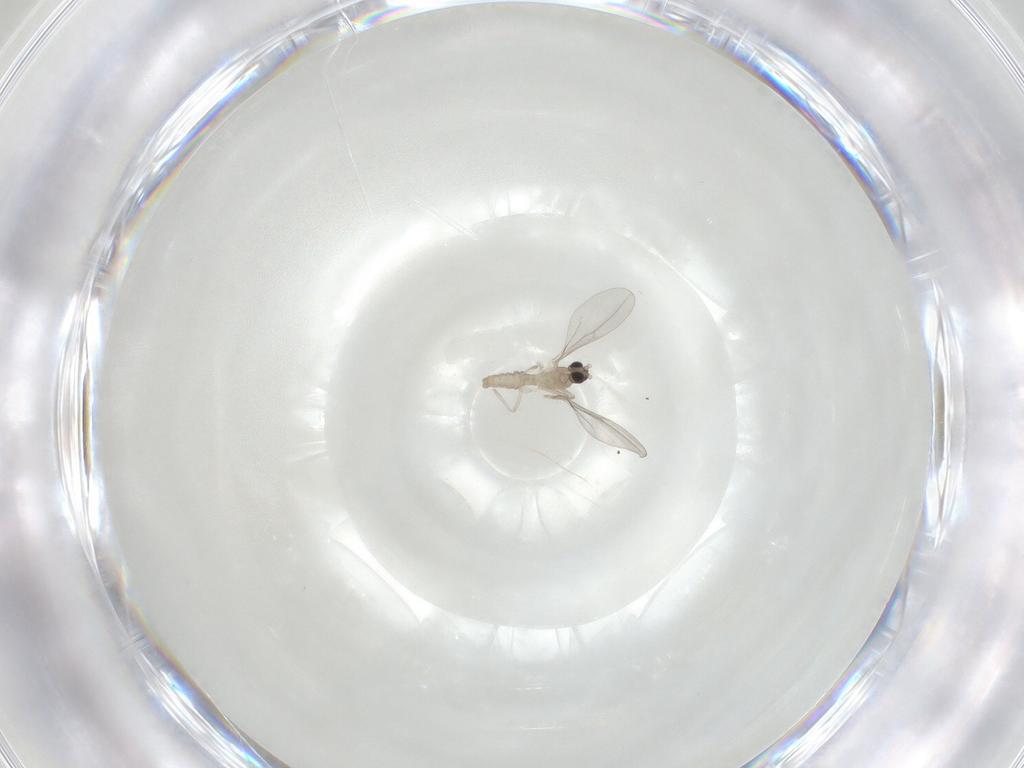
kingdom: Animalia
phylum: Arthropoda
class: Insecta
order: Diptera
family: Cecidomyiidae
